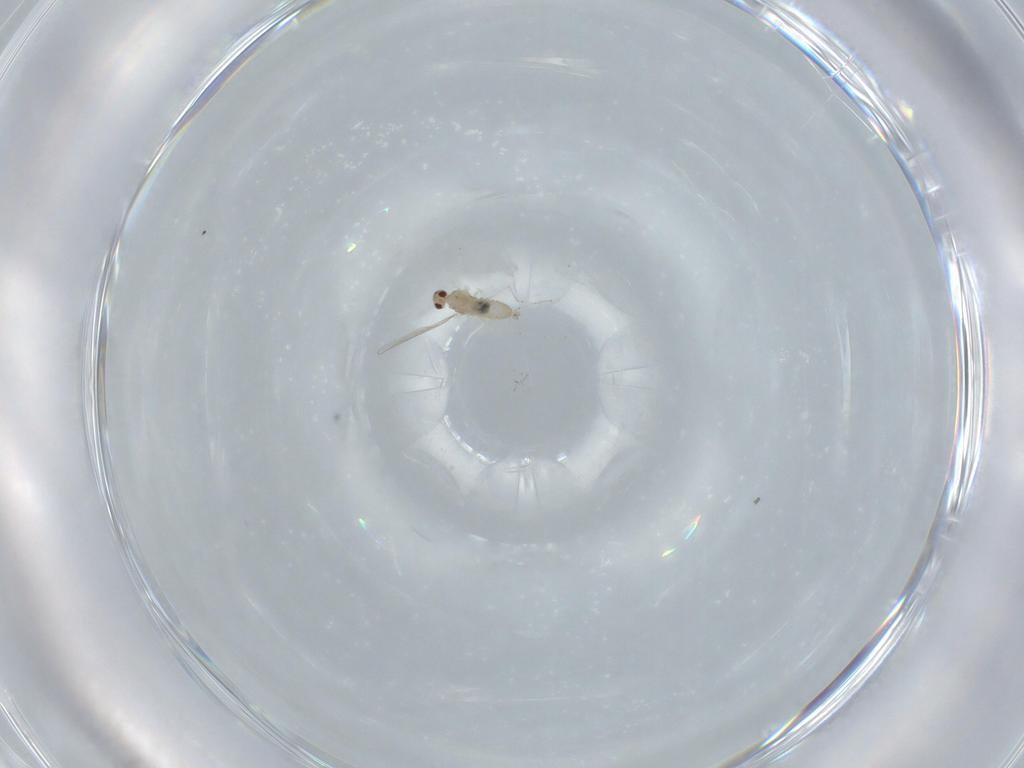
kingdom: Animalia
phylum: Arthropoda
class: Insecta
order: Diptera
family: Cecidomyiidae
